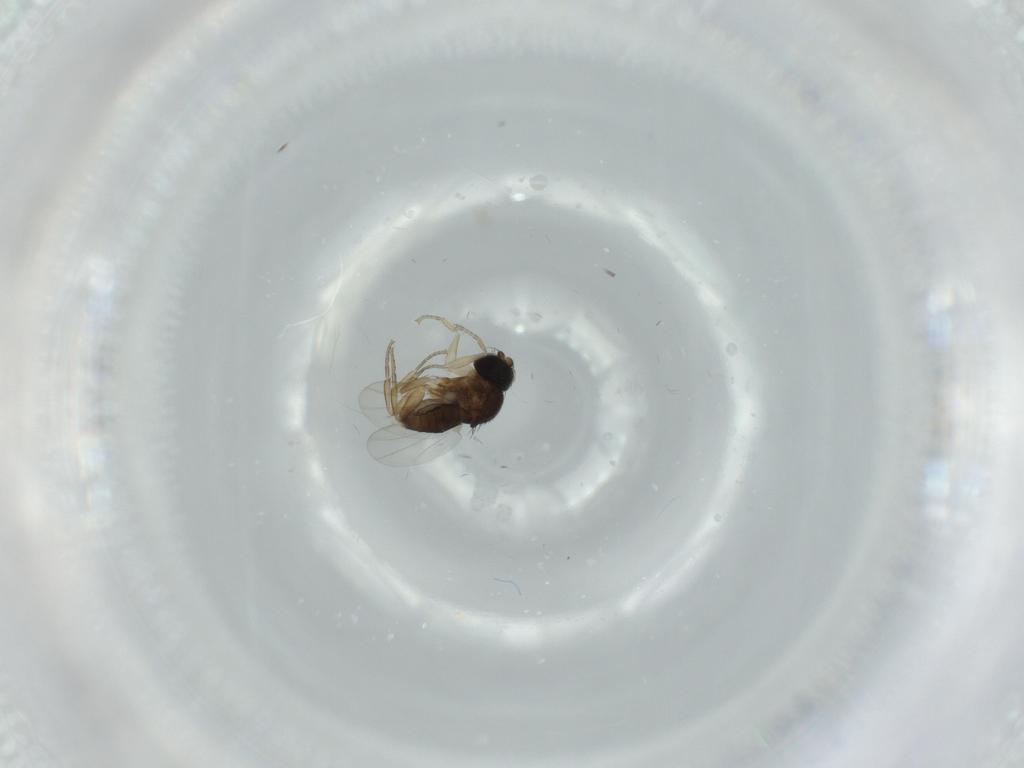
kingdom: Animalia
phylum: Arthropoda
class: Insecta
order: Diptera
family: Phoridae
